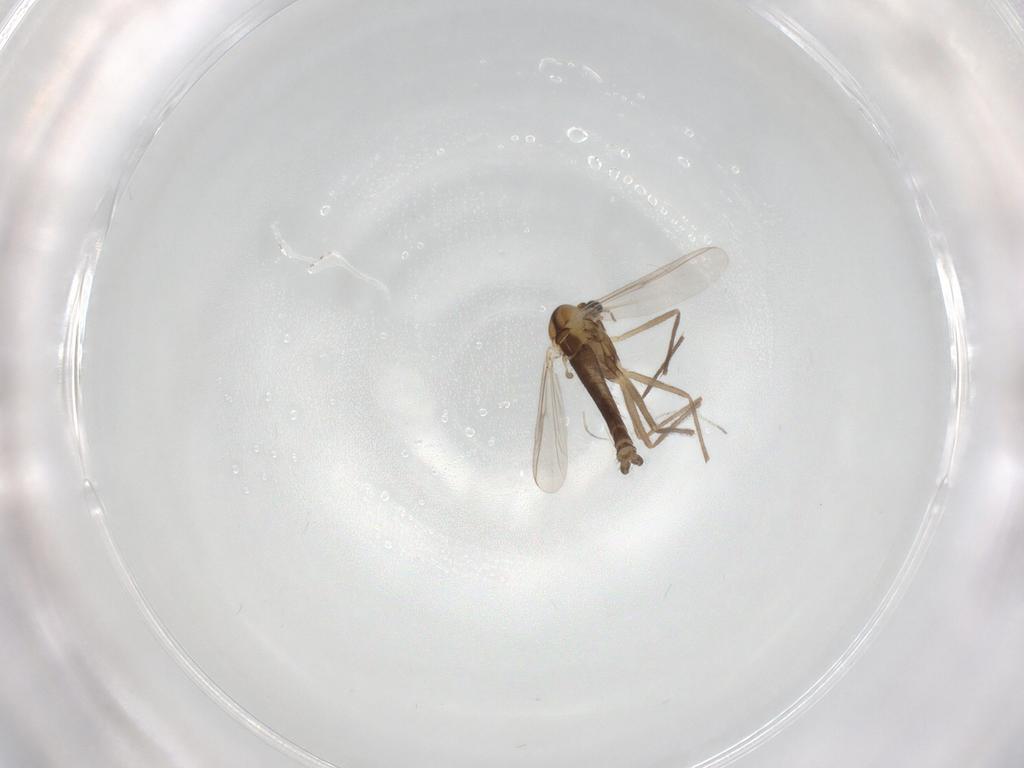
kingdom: Animalia
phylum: Arthropoda
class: Insecta
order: Diptera
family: Chironomidae
